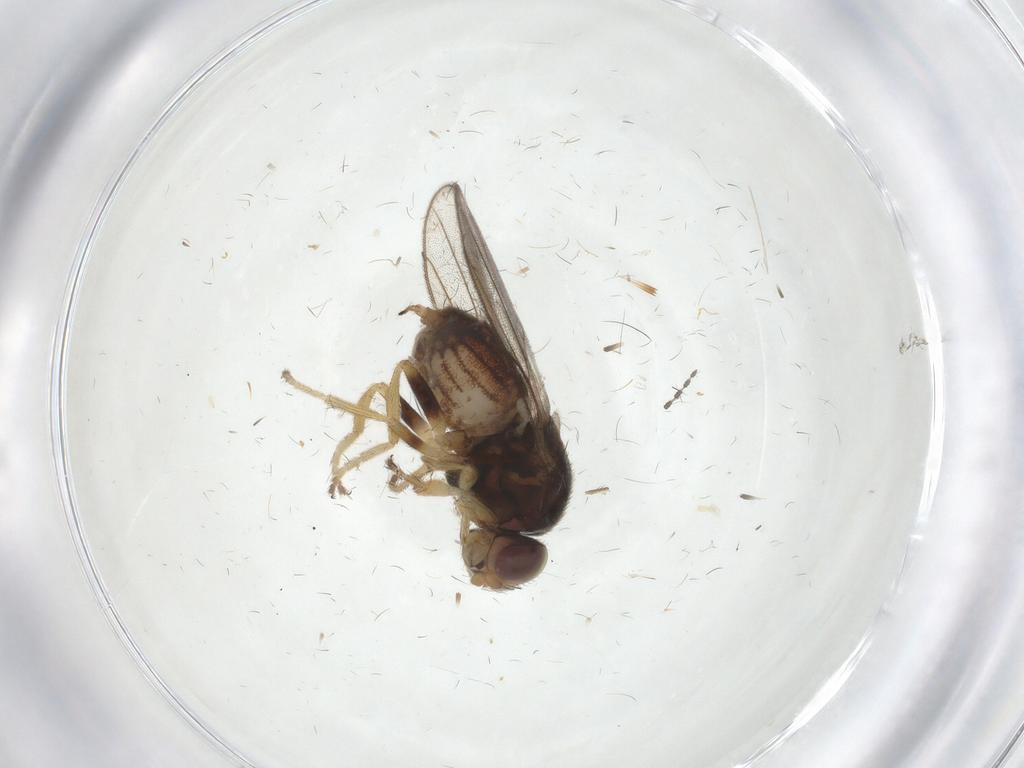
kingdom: Animalia
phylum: Arthropoda
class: Insecta
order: Diptera
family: Chloropidae
